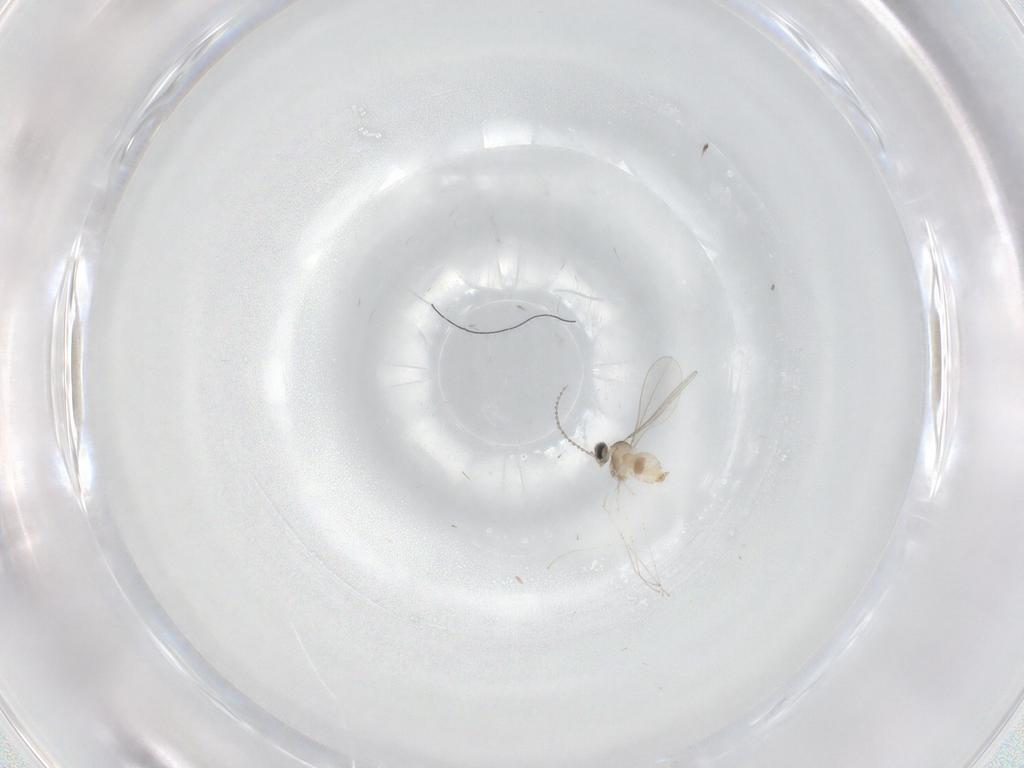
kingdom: Animalia
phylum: Arthropoda
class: Insecta
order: Diptera
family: Cecidomyiidae
